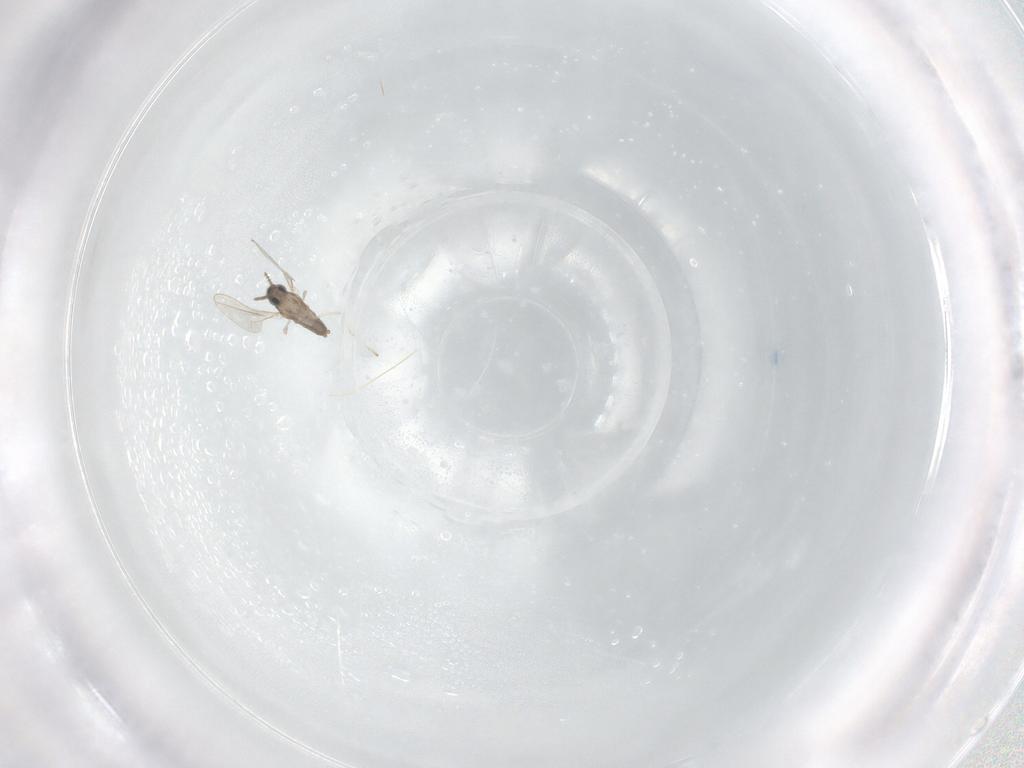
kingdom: Animalia
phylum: Arthropoda
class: Insecta
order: Diptera
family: Cecidomyiidae
